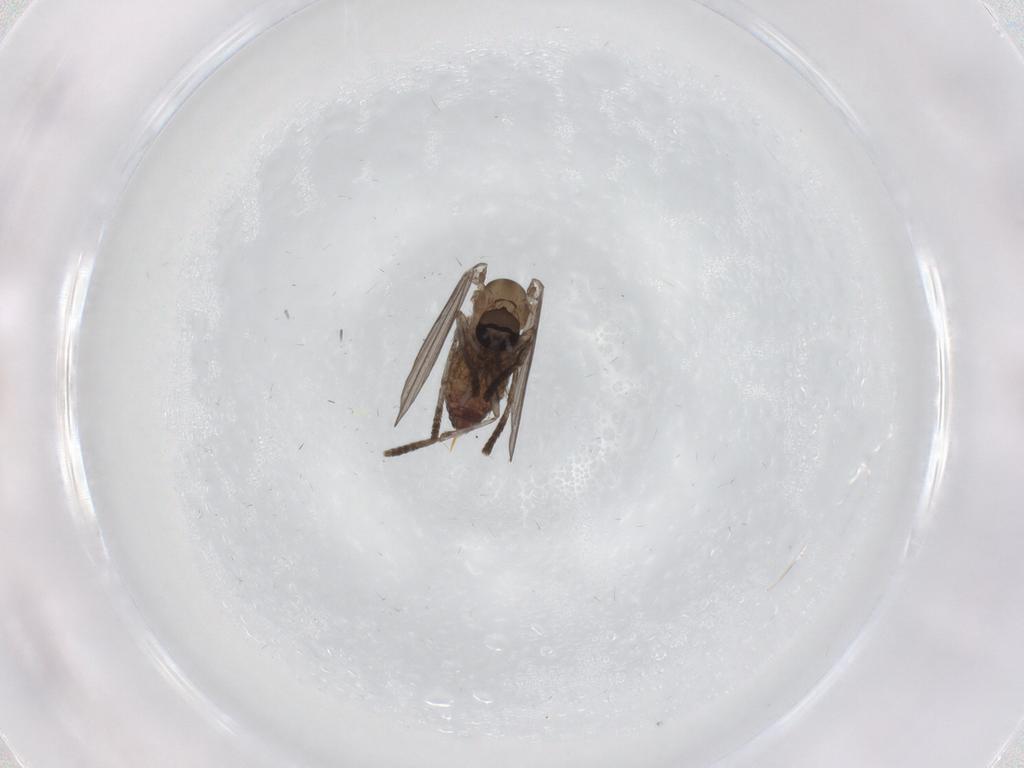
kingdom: Animalia
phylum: Arthropoda
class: Insecta
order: Diptera
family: Psychodidae
